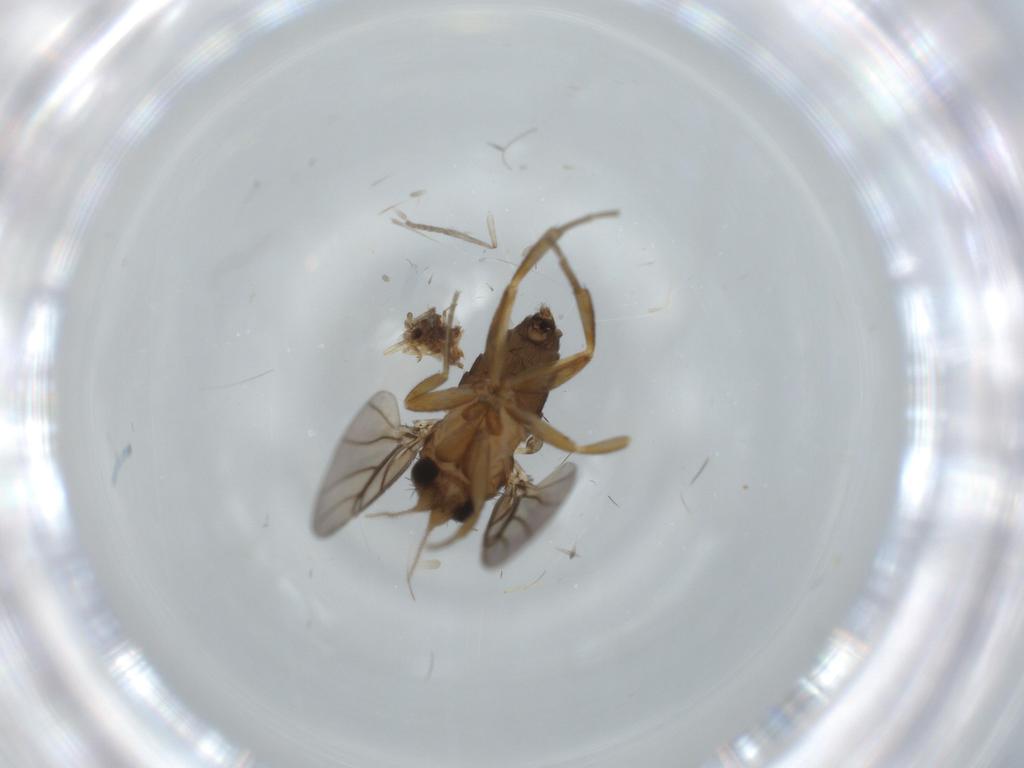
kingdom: Animalia
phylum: Arthropoda
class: Insecta
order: Diptera
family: Cecidomyiidae
